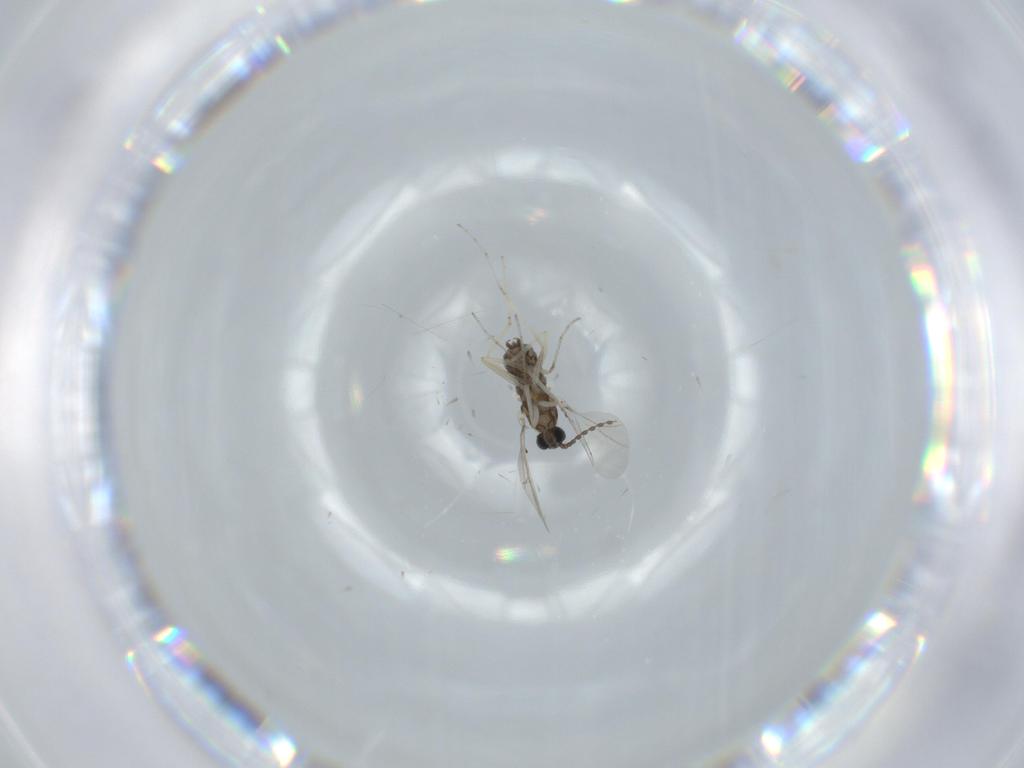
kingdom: Animalia
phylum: Arthropoda
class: Insecta
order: Diptera
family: Cecidomyiidae
